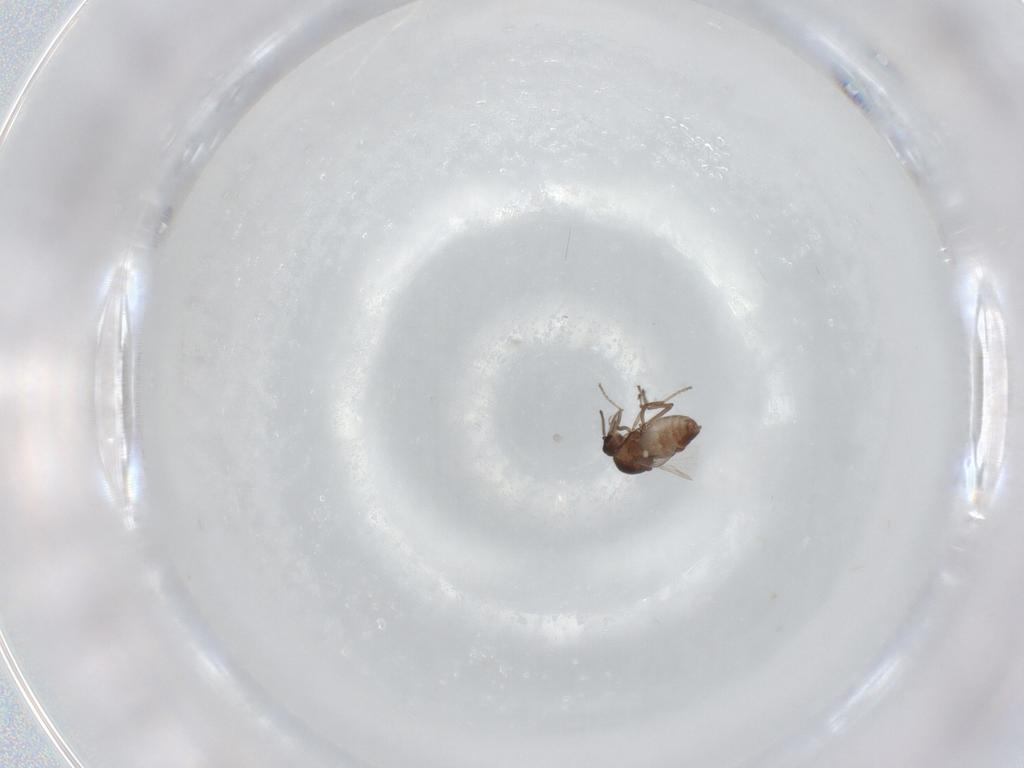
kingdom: Animalia
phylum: Arthropoda
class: Insecta
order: Diptera
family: Ceratopogonidae
